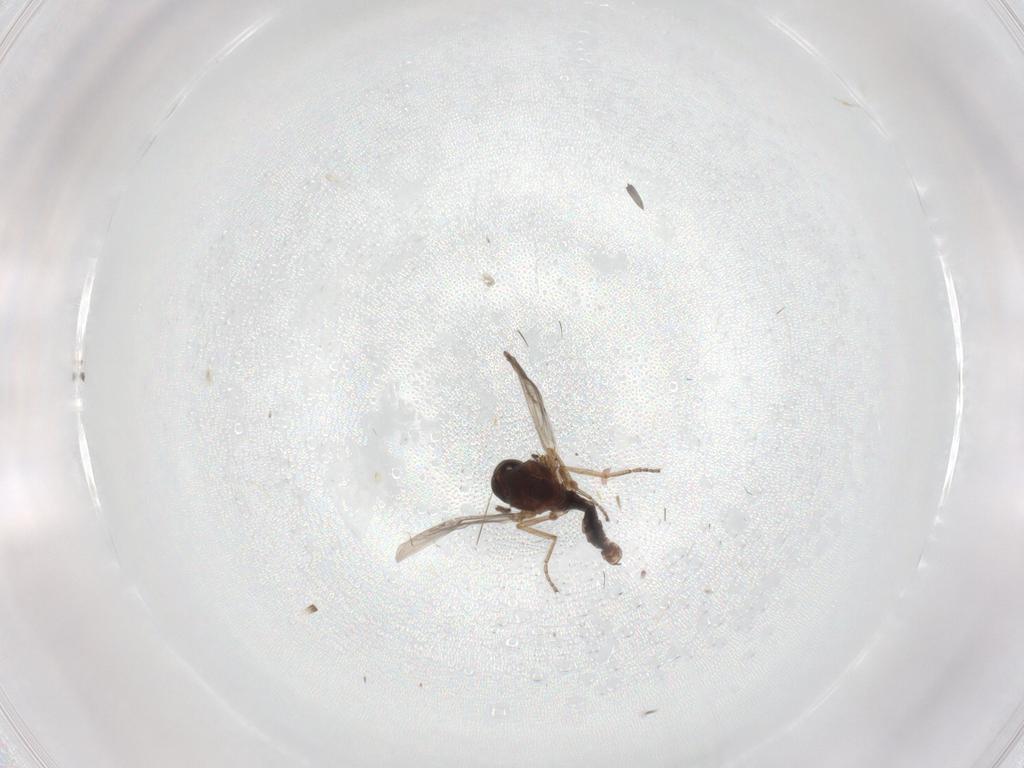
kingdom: Animalia
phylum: Arthropoda
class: Insecta
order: Diptera
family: Ceratopogonidae
